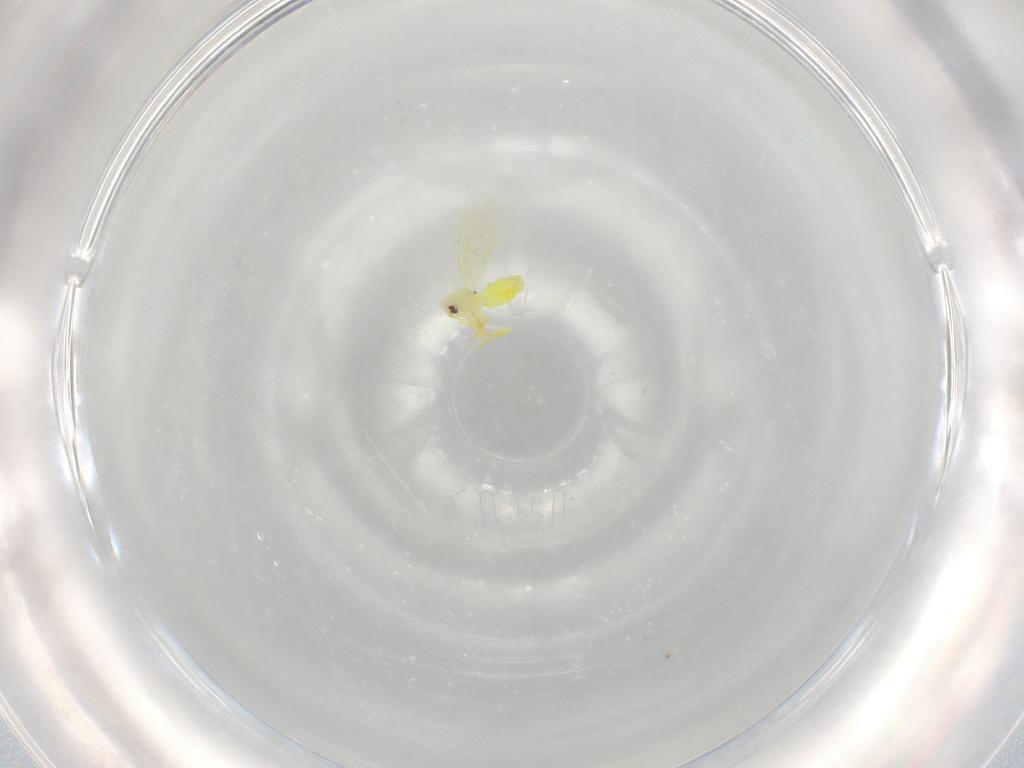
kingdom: Animalia
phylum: Arthropoda
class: Insecta
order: Hemiptera
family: Aleyrodidae
